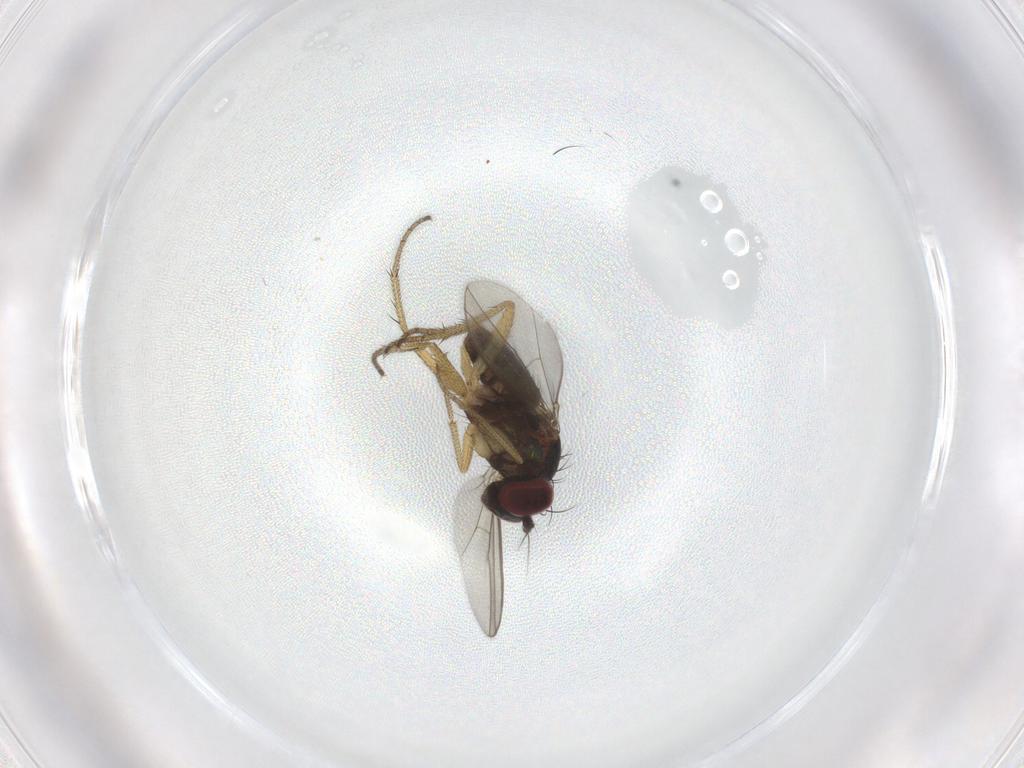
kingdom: Animalia
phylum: Arthropoda
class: Insecta
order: Diptera
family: Dolichopodidae
